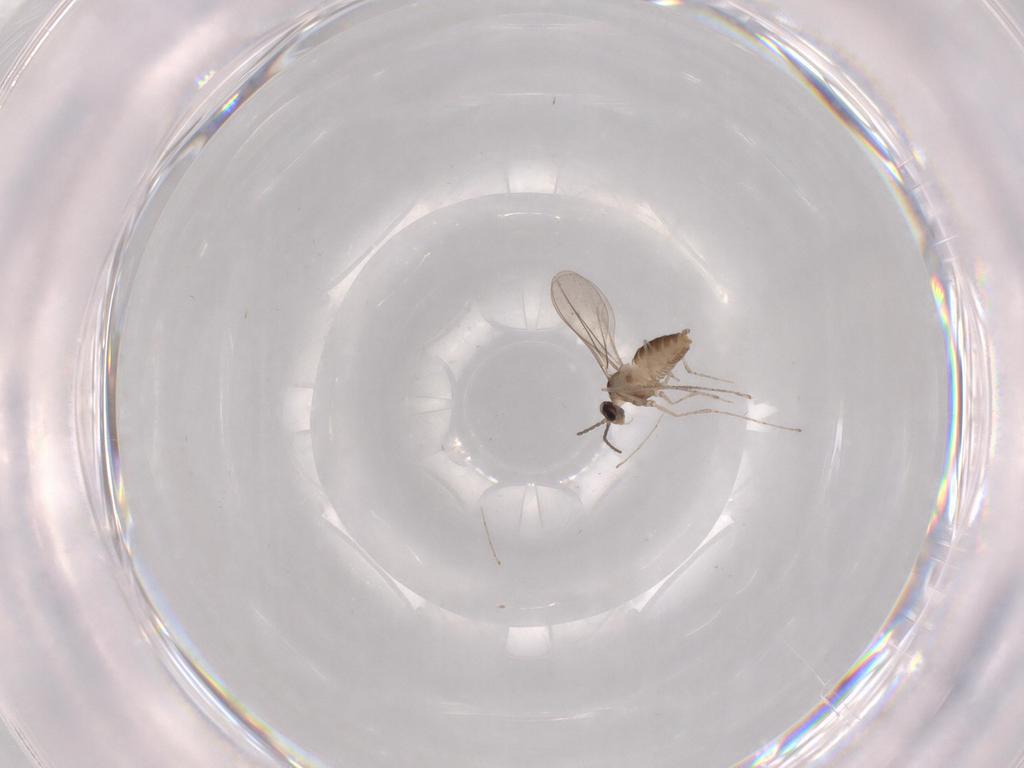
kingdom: Animalia
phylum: Arthropoda
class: Insecta
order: Diptera
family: Cecidomyiidae
